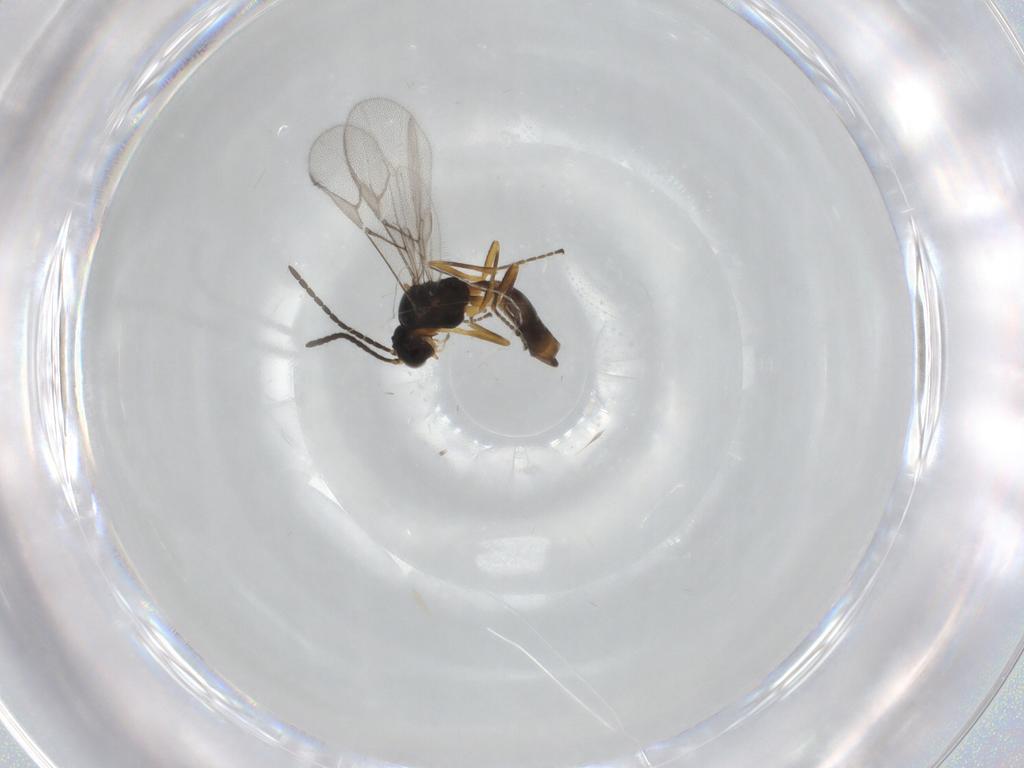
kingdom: Animalia
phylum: Arthropoda
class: Insecta
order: Hymenoptera
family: Braconidae
